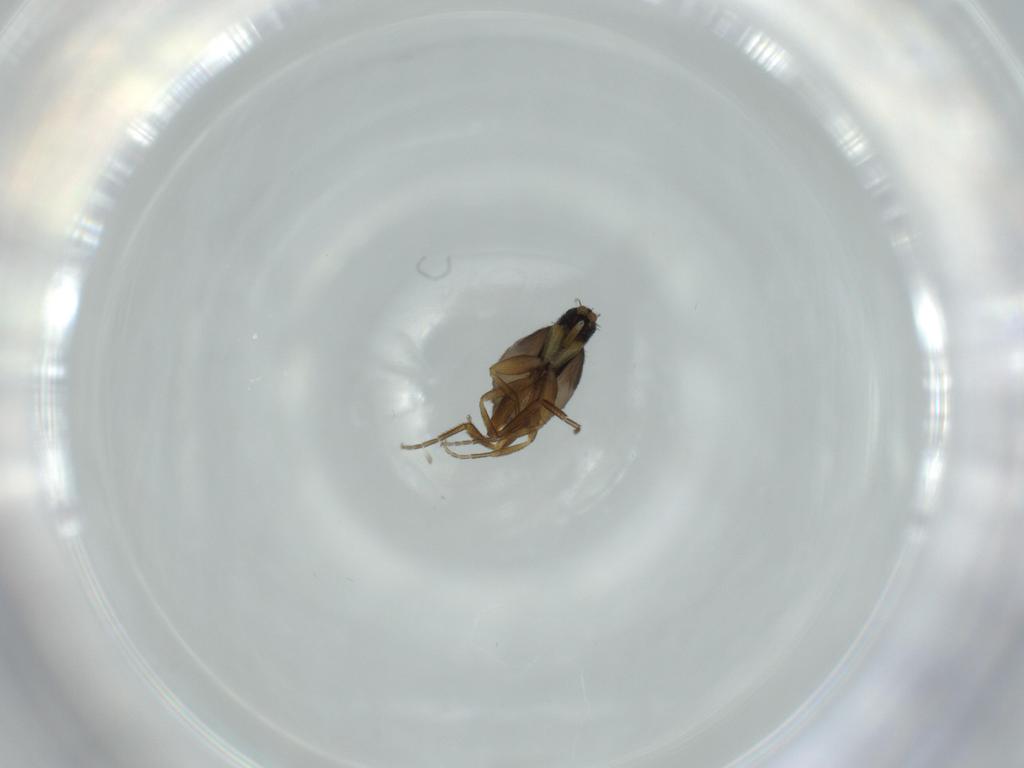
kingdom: Animalia
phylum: Arthropoda
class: Insecta
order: Diptera
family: Phoridae
